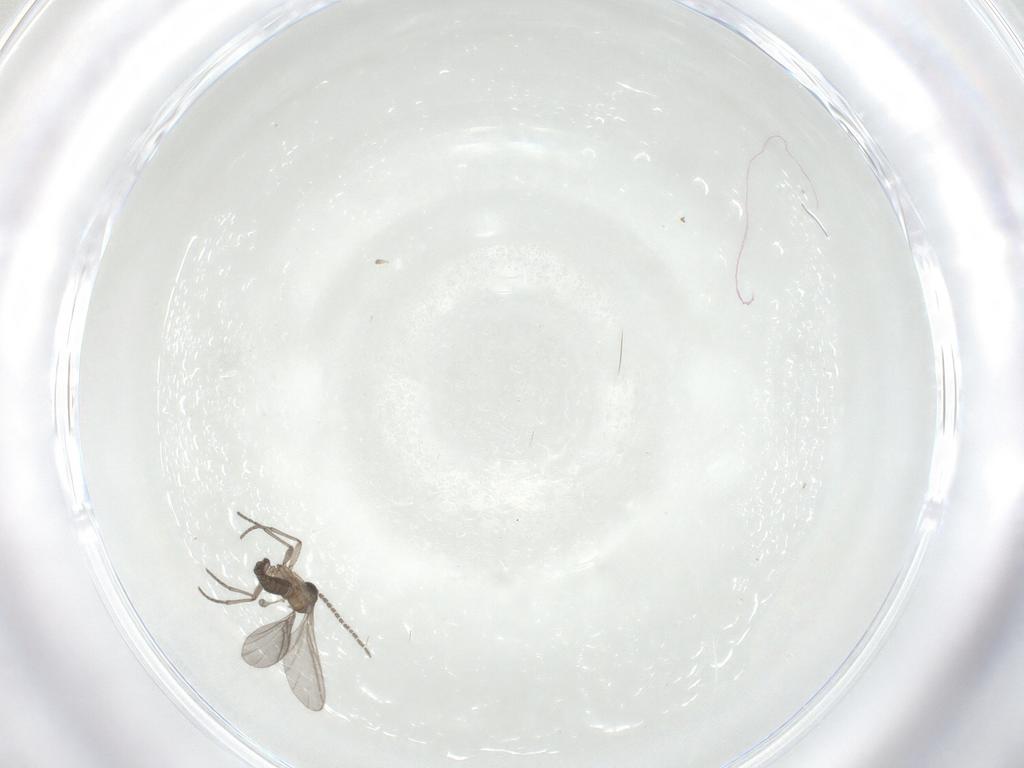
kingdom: Animalia
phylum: Arthropoda
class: Insecta
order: Diptera
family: Sciaridae
